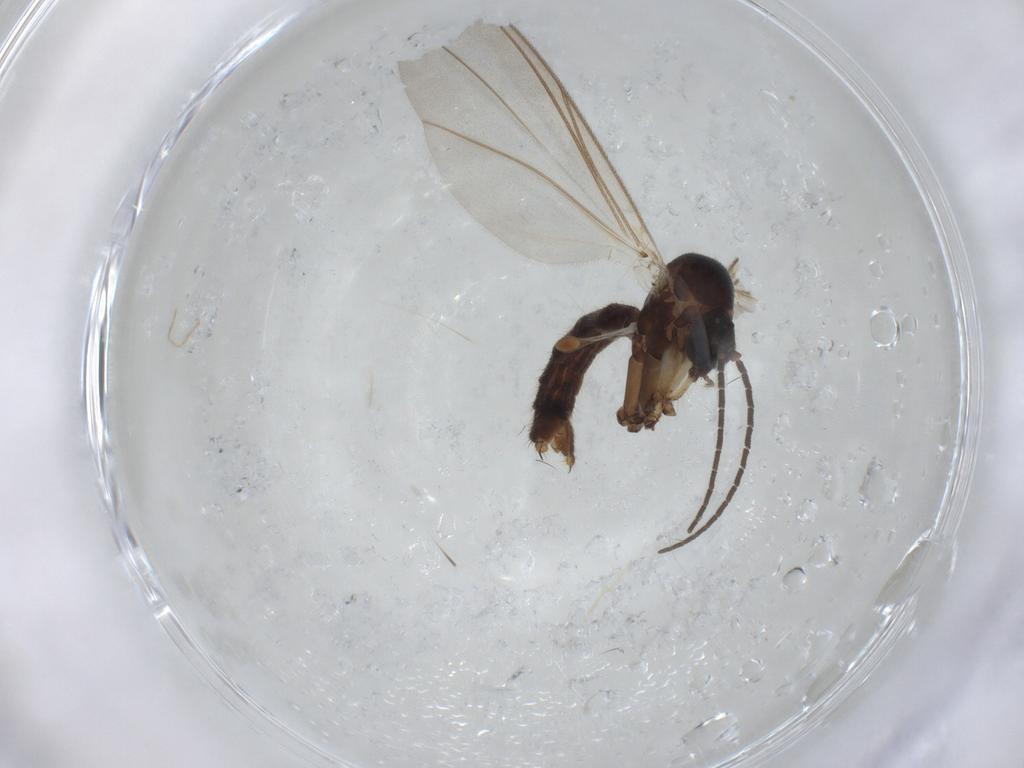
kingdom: Animalia
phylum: Arthropoda
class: Insecta
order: Diptera
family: Mycetophilidae
